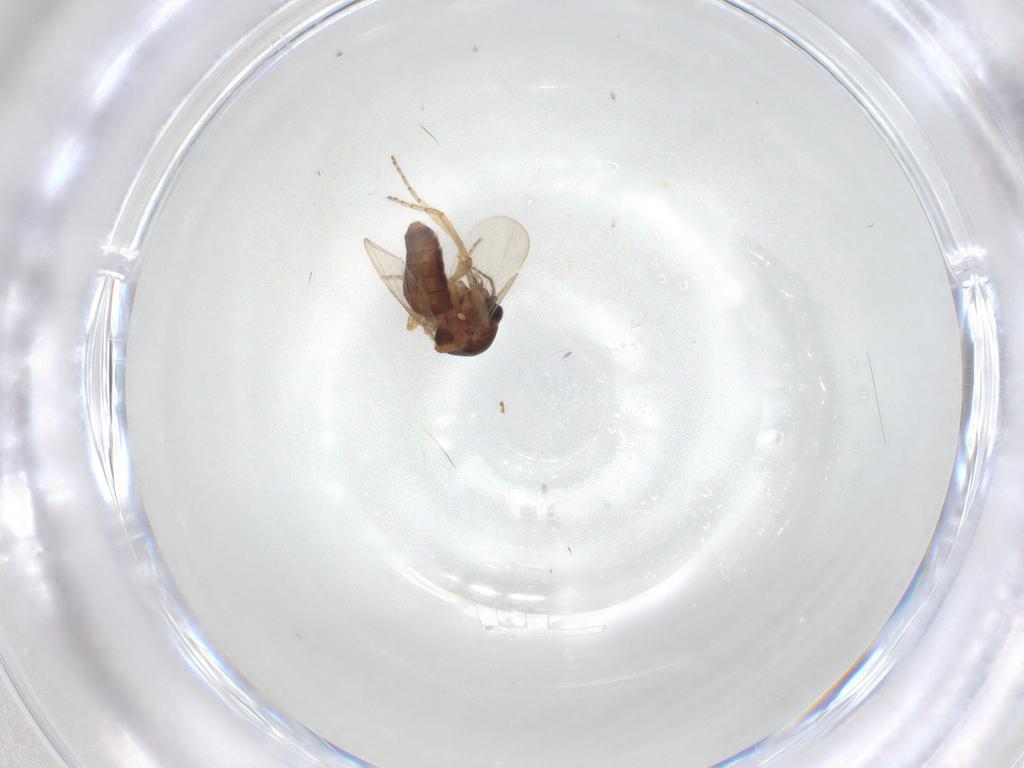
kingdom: Animalia
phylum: Arthropoda
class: Insecta
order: Diptera
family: Ceratopogonidae
